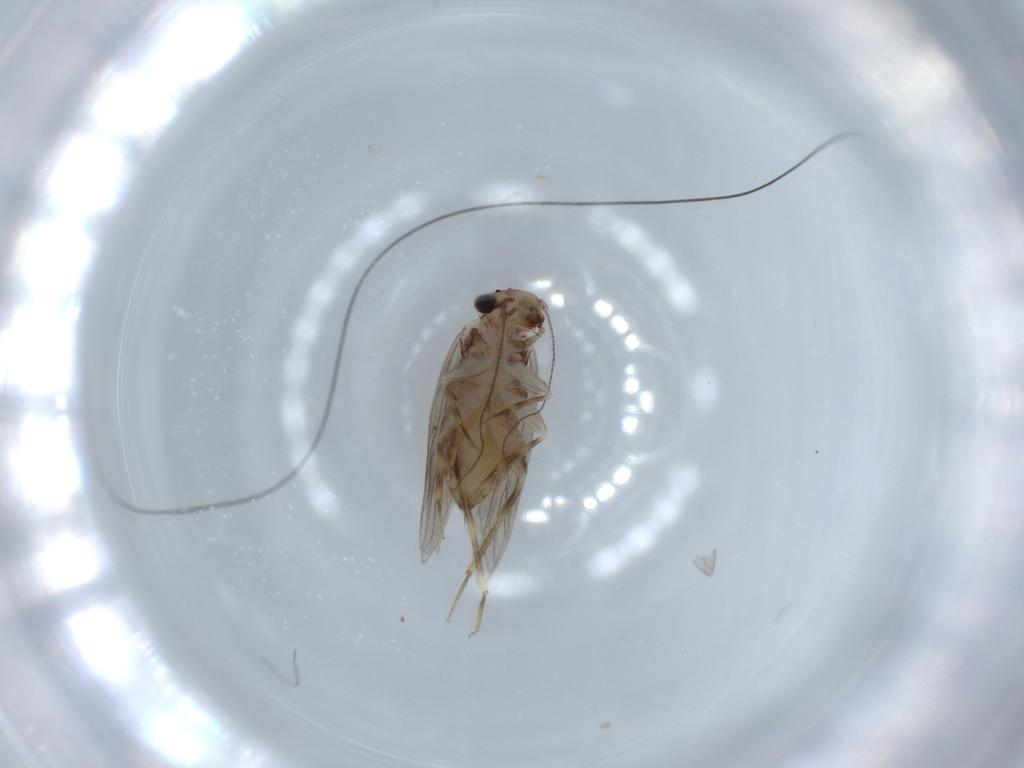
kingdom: Animalia
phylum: Arthropoda
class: Insecta
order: Psocodea
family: Lepidopsocidae
